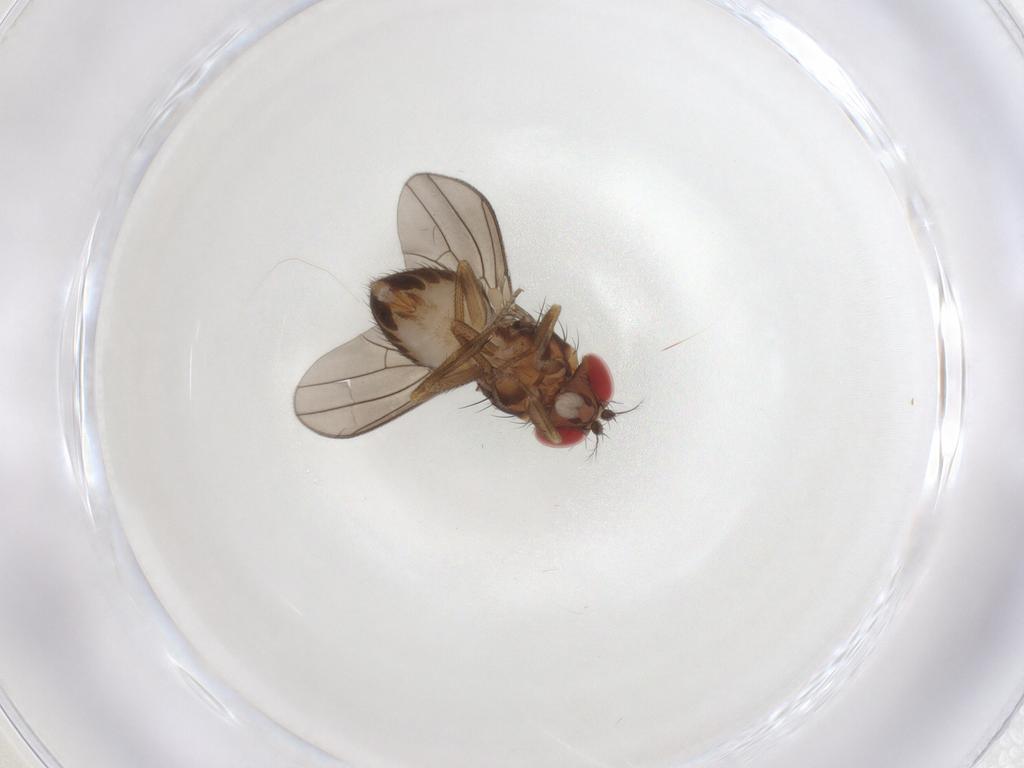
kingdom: Animalia
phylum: Arthropoda
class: Insecta
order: Diptera
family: Drosophilidae
